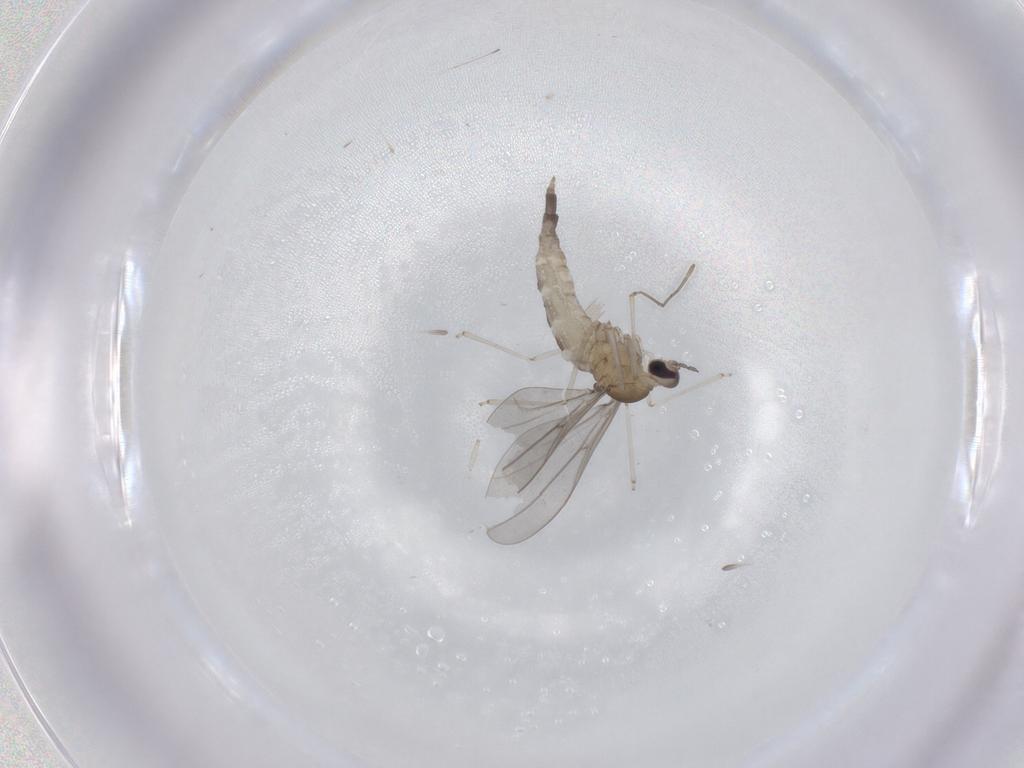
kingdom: Animalia
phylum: Arthropoda
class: Insecta
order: Diptera
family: Cecidomyiidae
